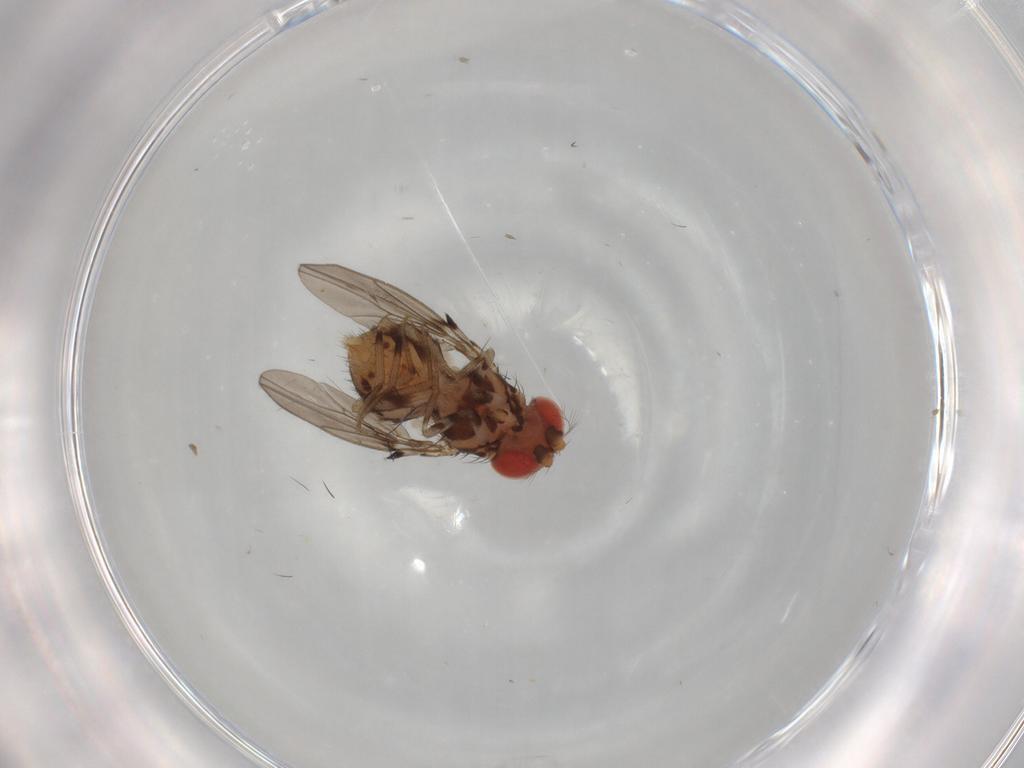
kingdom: Animalia
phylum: Arthropoda
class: Insecta
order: Diptera
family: Drosophilidae
